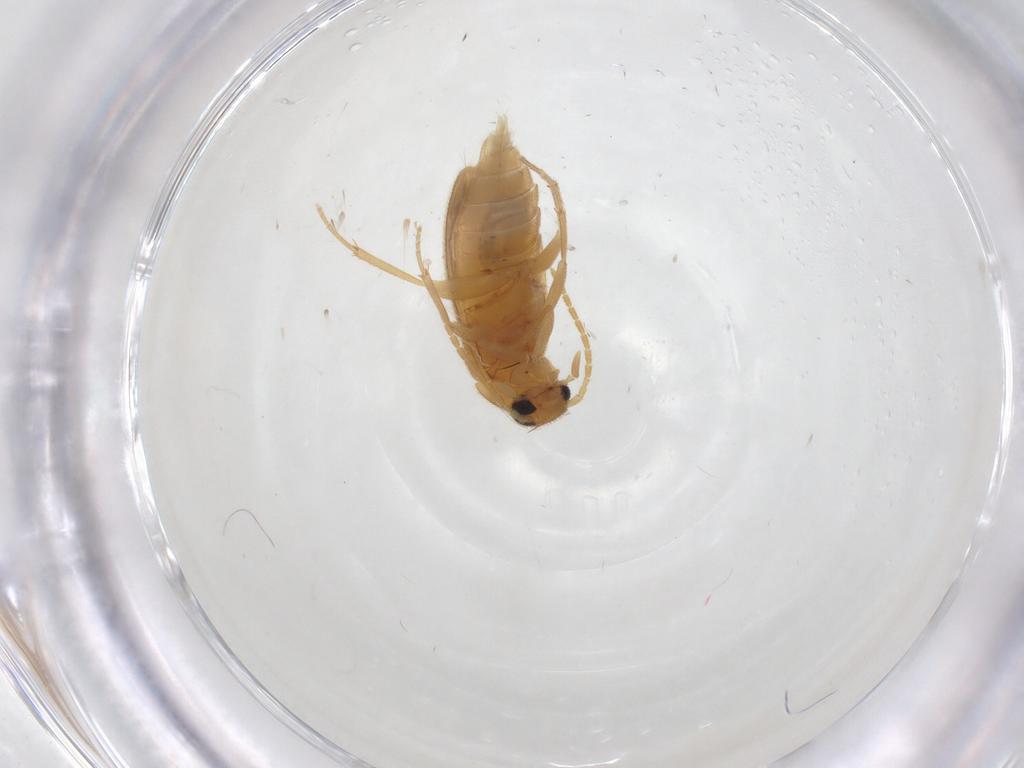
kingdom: Animalia
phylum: Arthropoda
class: Insecta
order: Coleoptera
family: Scraptiidae
